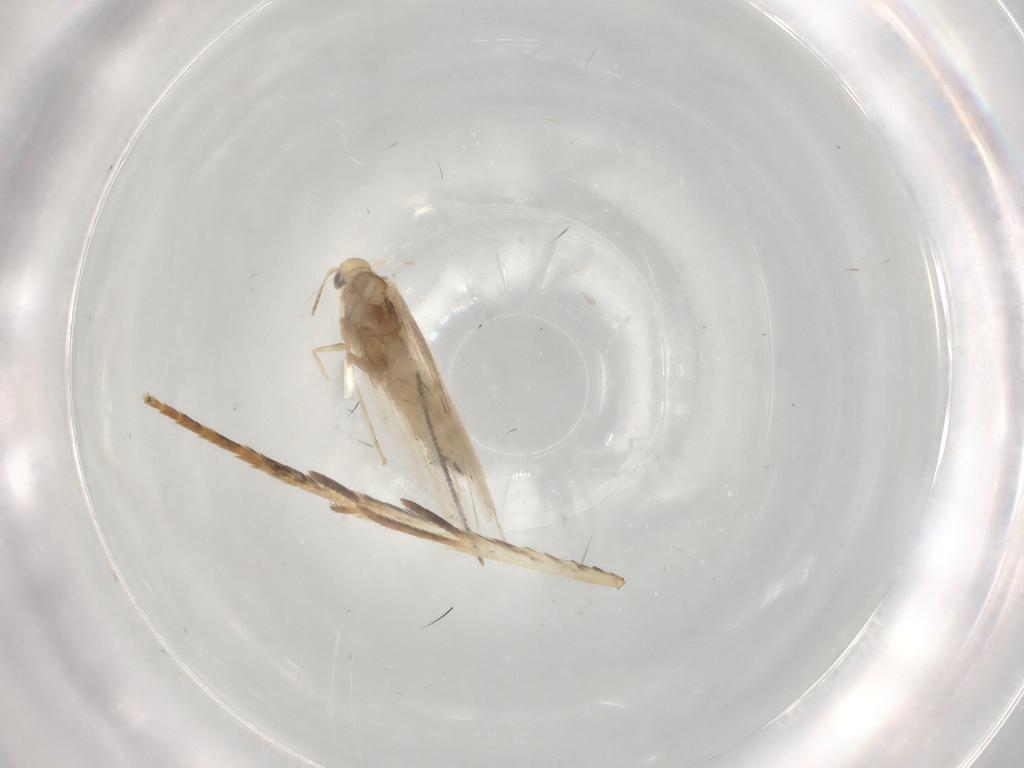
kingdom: Animalia
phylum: Arthropoda
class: Insecta
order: Lepidoptera
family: Momphidae
